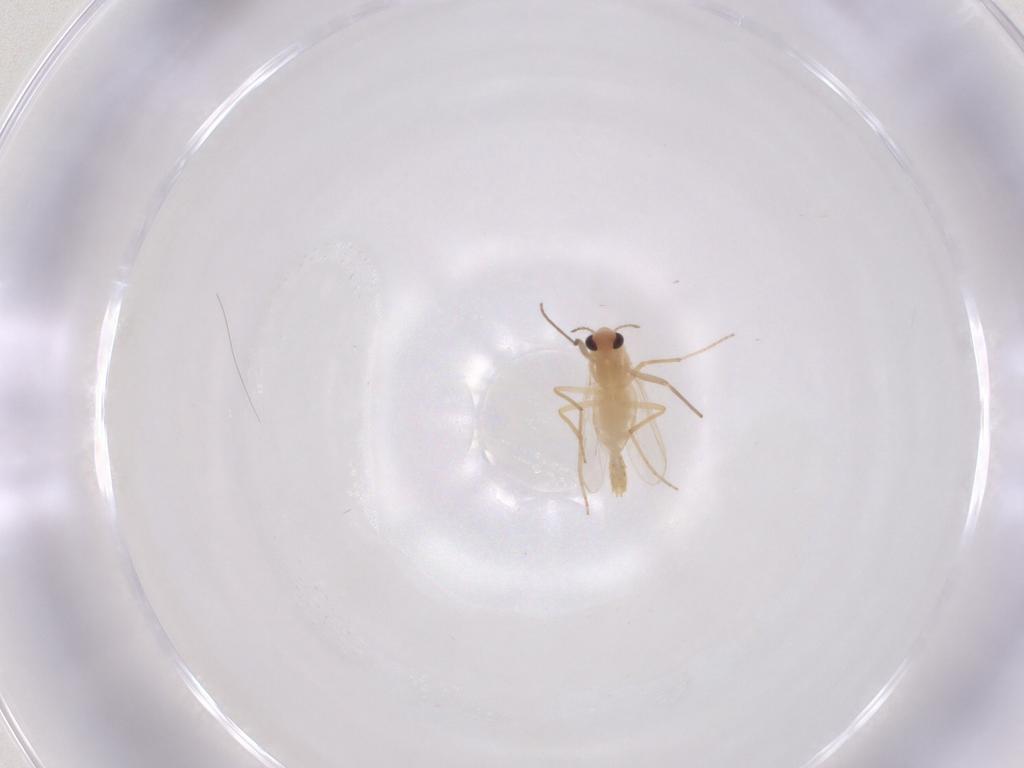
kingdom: Animalia
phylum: Arthropoda
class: Insecta
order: Diptera
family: Chironomidae
